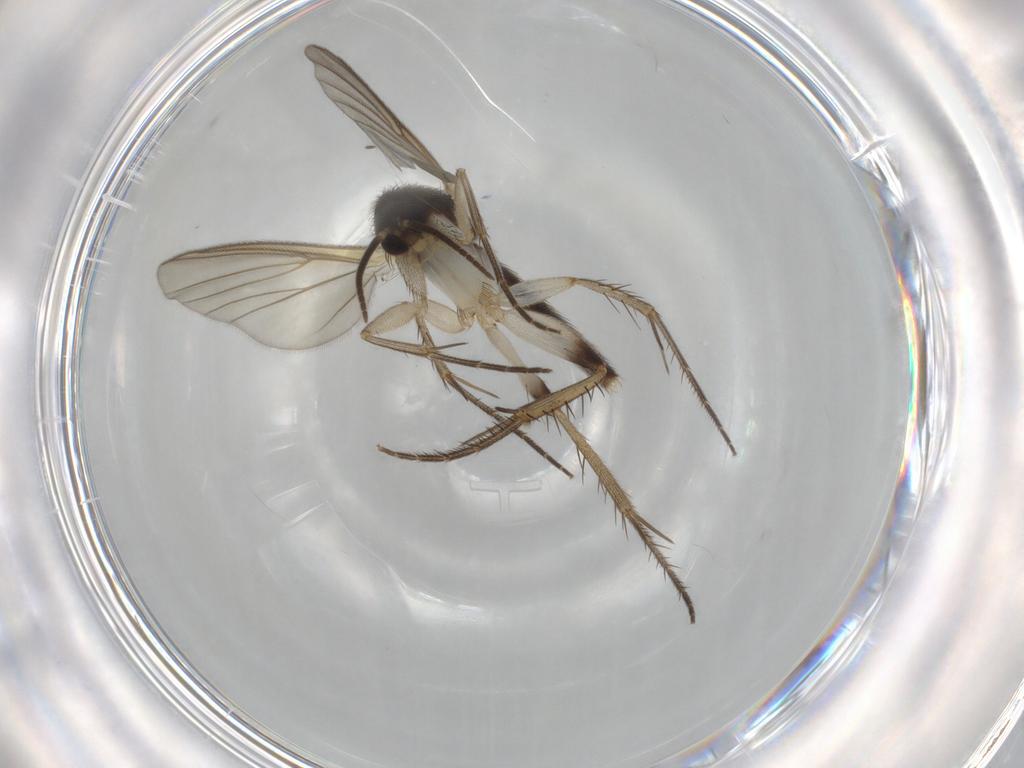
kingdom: Animalia
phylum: Arthropoda
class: Insecta
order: Diptera
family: Mycetophilidae
